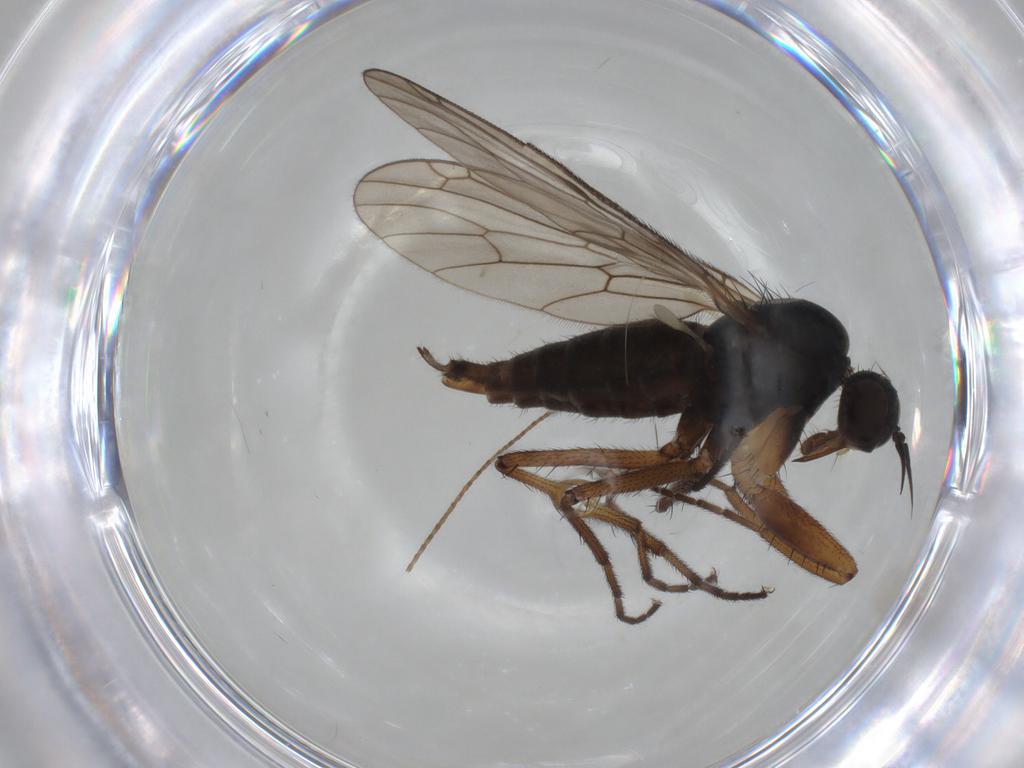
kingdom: Animalia
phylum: Arthropoda
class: Insecta
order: Diptera
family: Empididae
